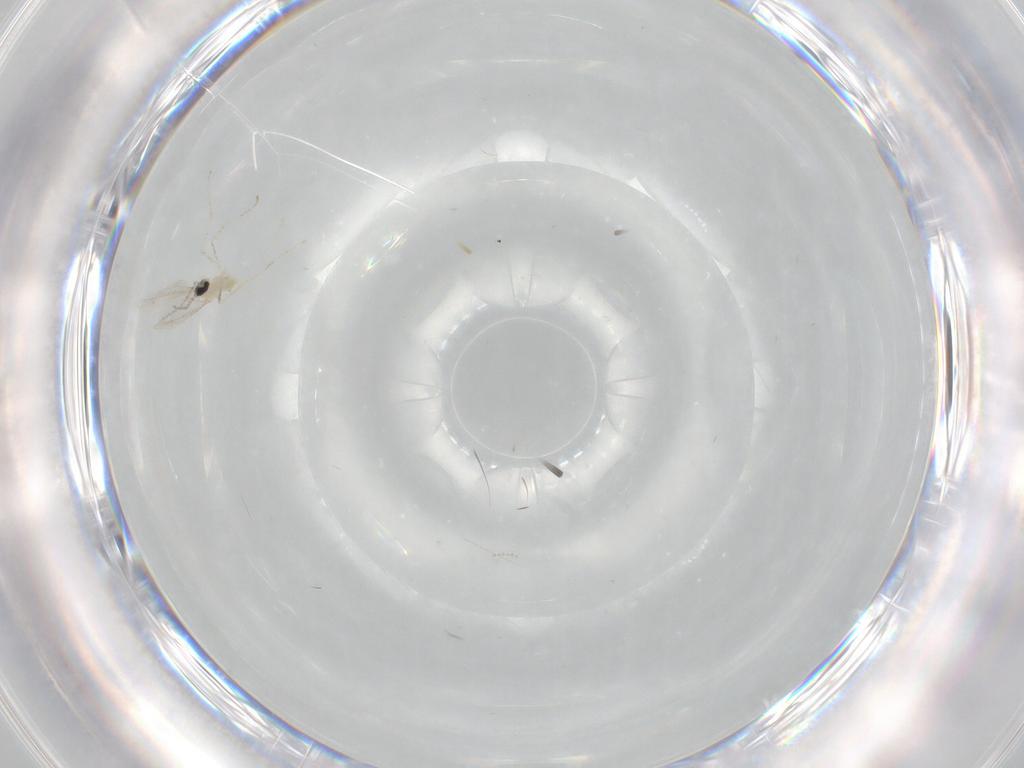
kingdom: Animalia
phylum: Arthropoda
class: Insecta
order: Diptera
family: Cecidomyiidae
